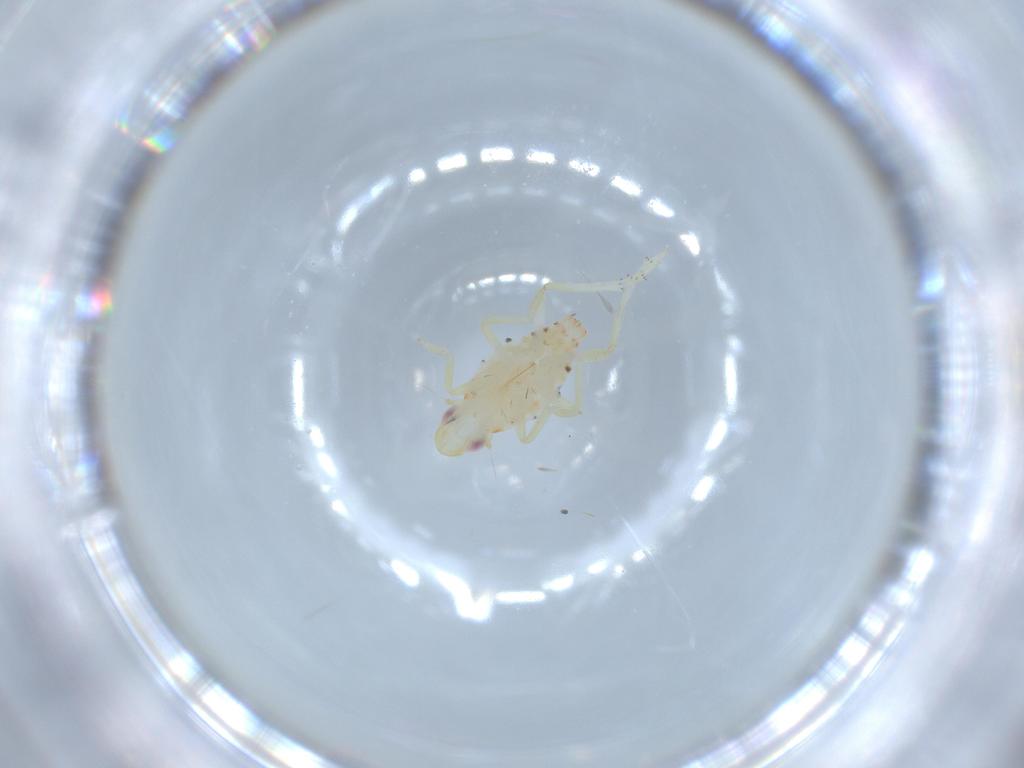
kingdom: Animalia
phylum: Arthropoda
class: Insecta
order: Hemiptera
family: Tropiduchidae
